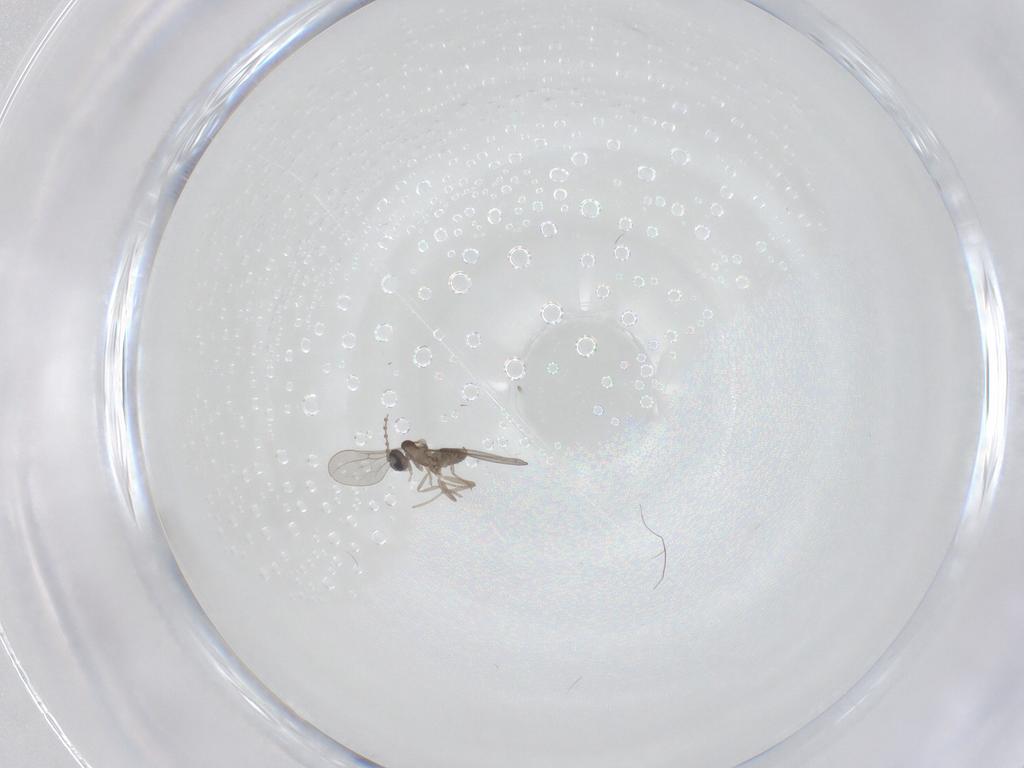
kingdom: Animalia
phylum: Arthropoda
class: Insecta
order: Diptera
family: Cecidomyiidae
